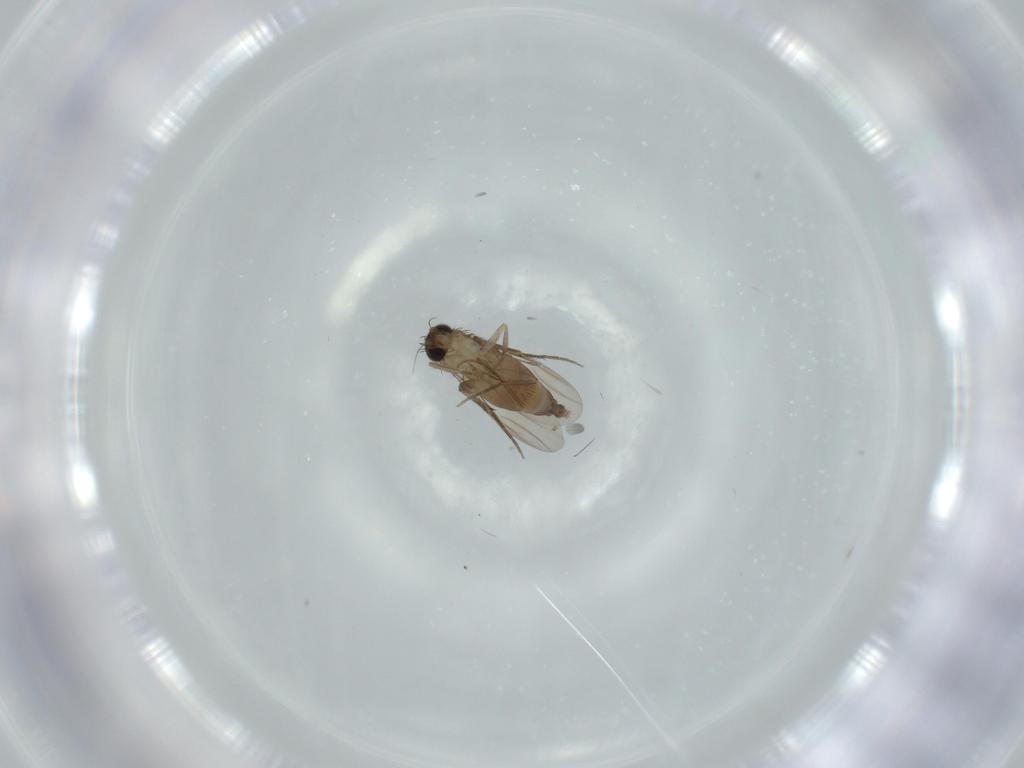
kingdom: Animalia
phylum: Arthropoda
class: Insecta
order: Diptera
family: Phoridae
